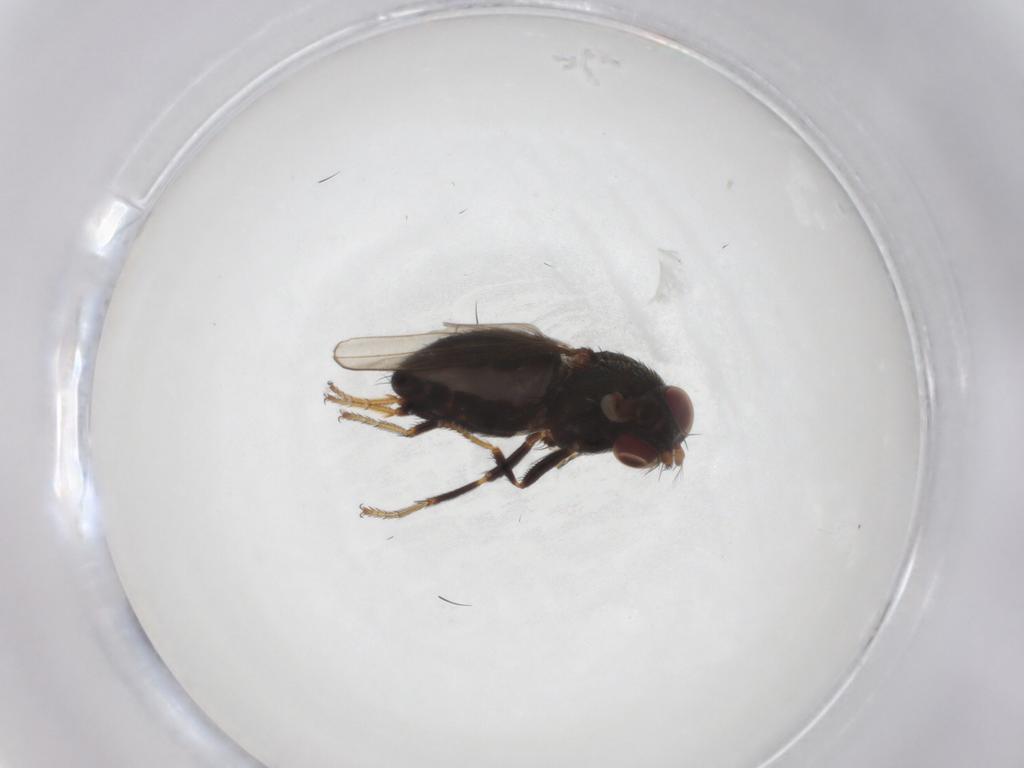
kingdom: Animalia
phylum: Arthropoda
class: Insecta
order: Diptera
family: Ephydridae
